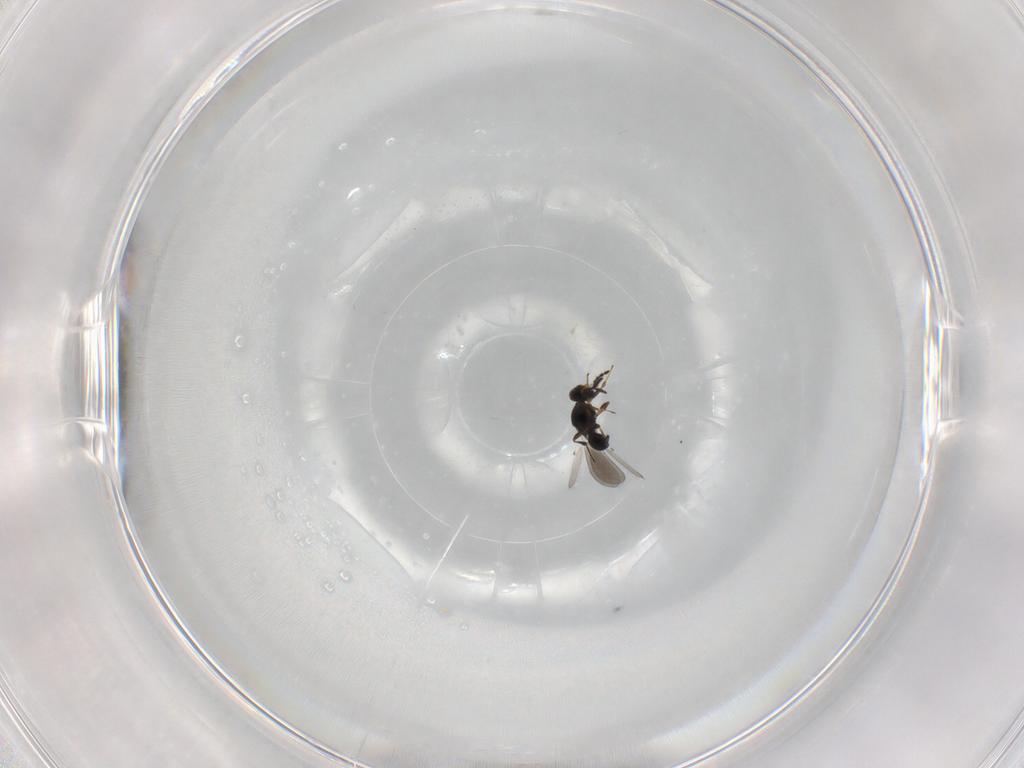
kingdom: Animalia
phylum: Arthropoda
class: Insecta
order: Hymenoptera
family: Platygastridae
